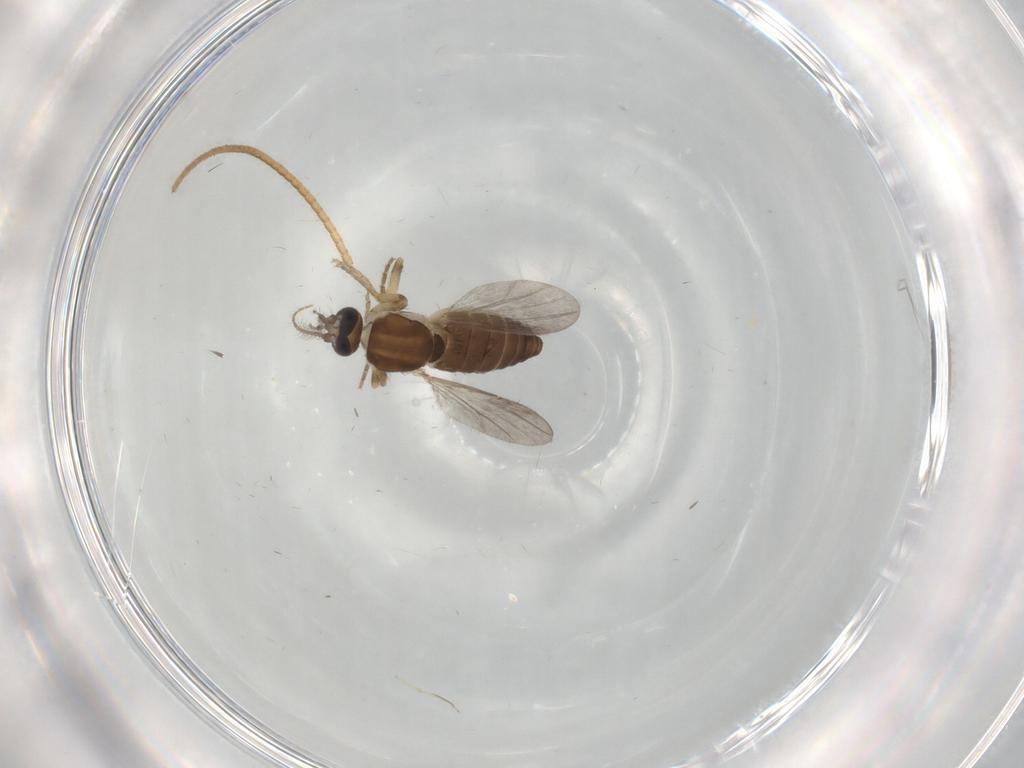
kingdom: Animalia
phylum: Arthropoda
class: Insecta
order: Diptera
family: Ceratopogonidae
